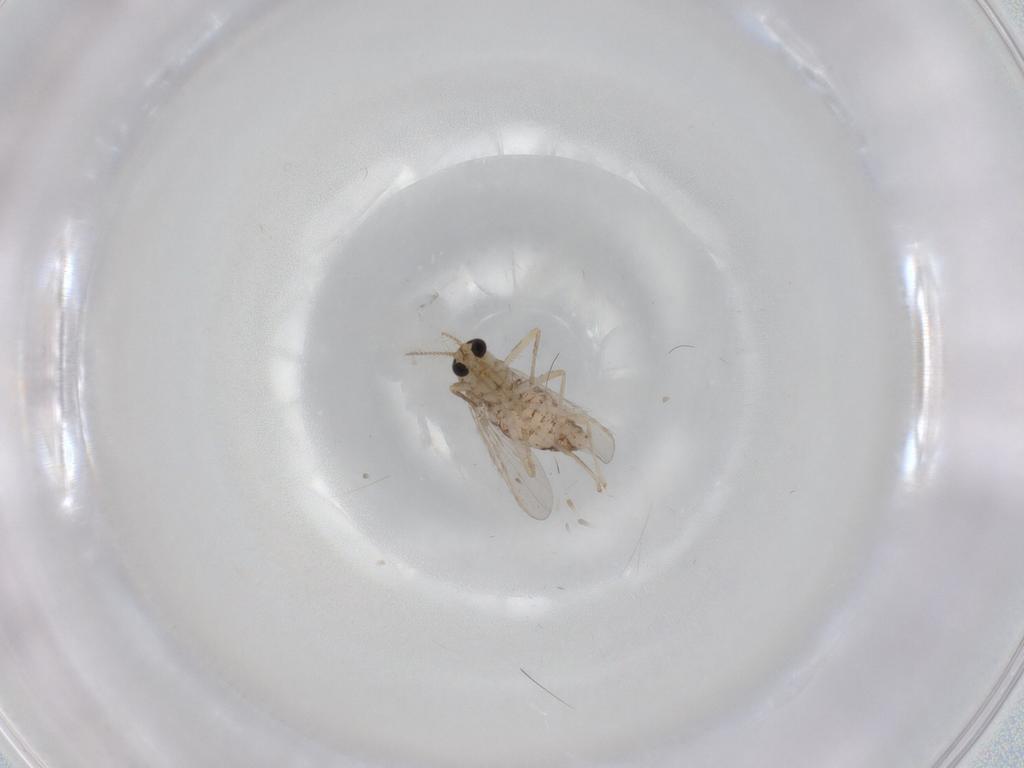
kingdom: Animalia
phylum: Arthropoda
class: Insecta
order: Diptera
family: Chironomidae
